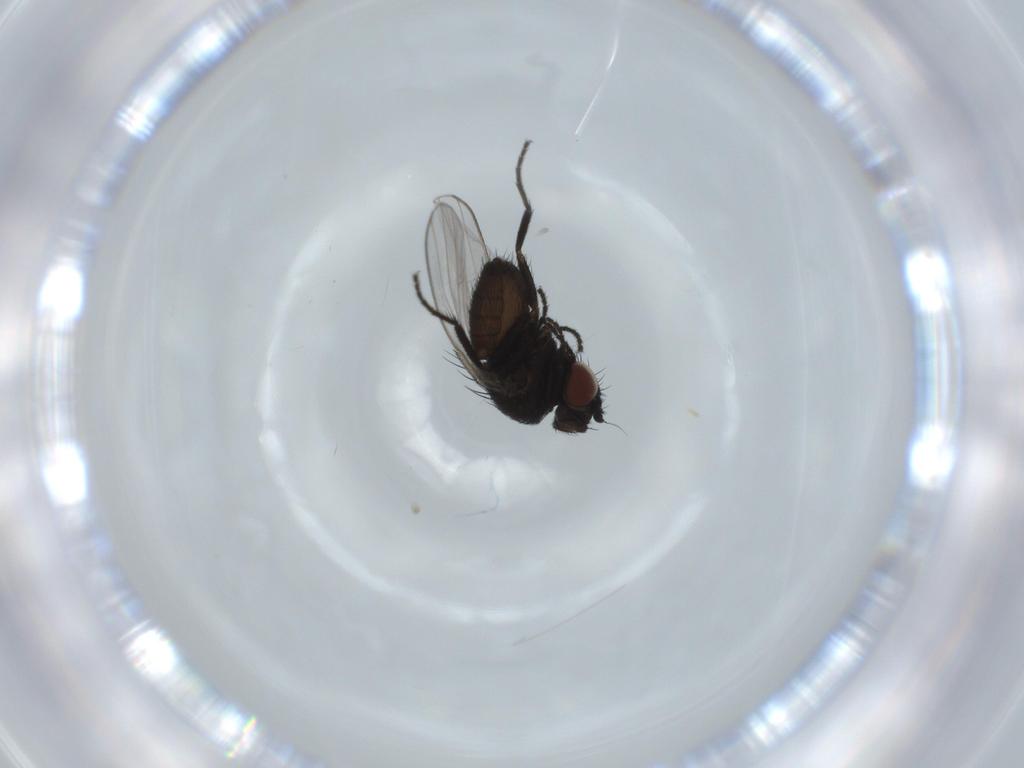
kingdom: Animalia
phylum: Arthropoda
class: Insecta
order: Diptera
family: Milichiidae
